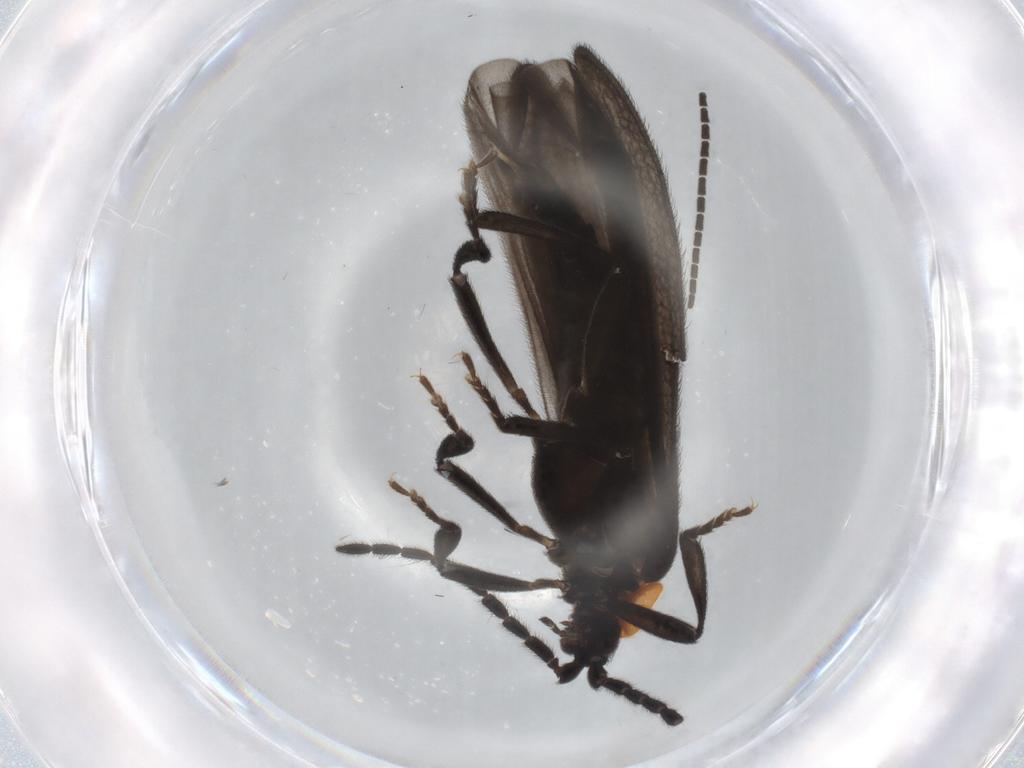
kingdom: Animalia
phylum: Arthropoda
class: Insecta
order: Coleoptera
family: Lycidae
